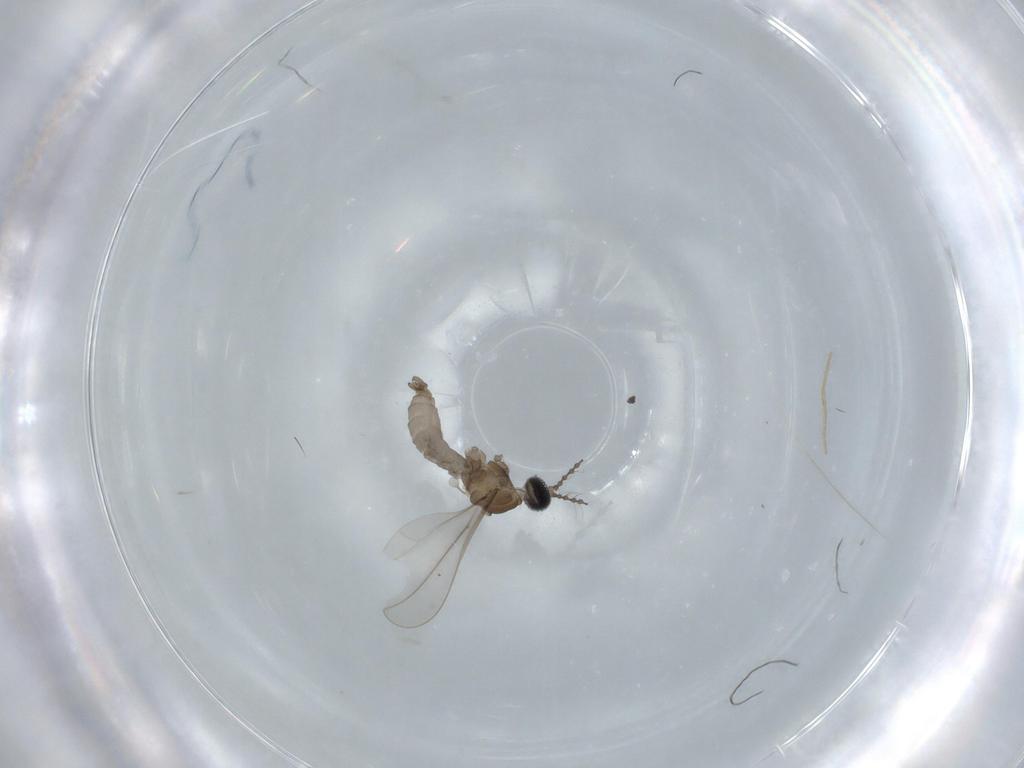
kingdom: Animalia
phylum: Arthropoda
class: Insecta
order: Diptera
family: Cecidomyiidae
